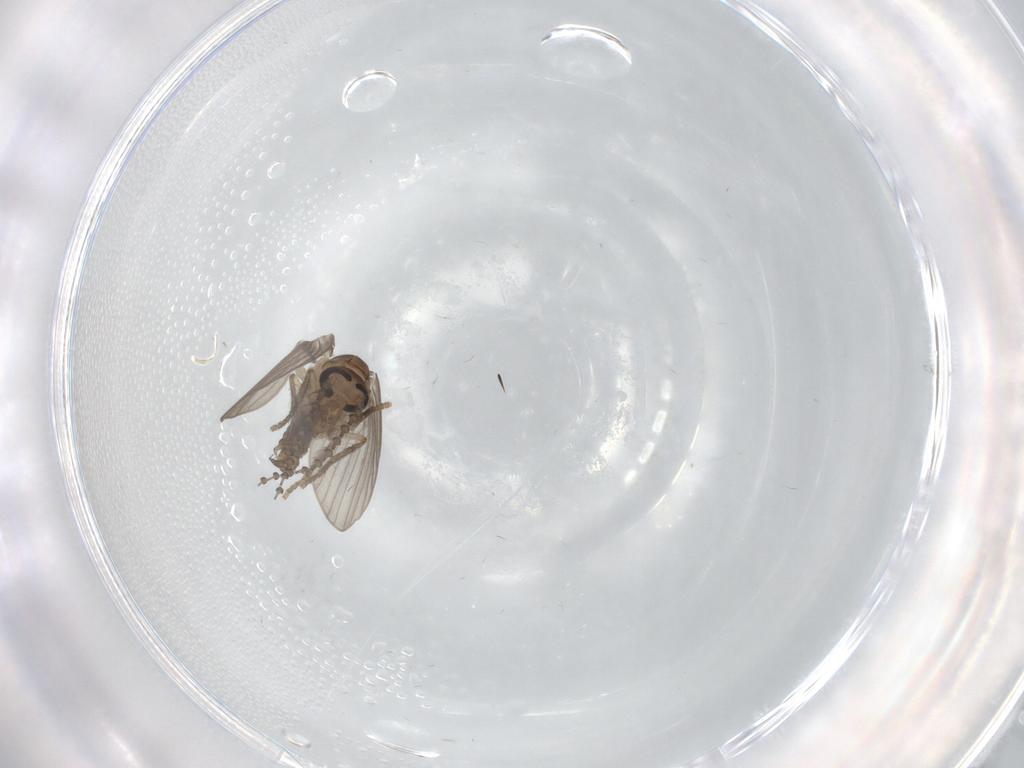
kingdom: Animalia
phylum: Arthropoda
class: Insecta
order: Diptera
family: Psychodidae
